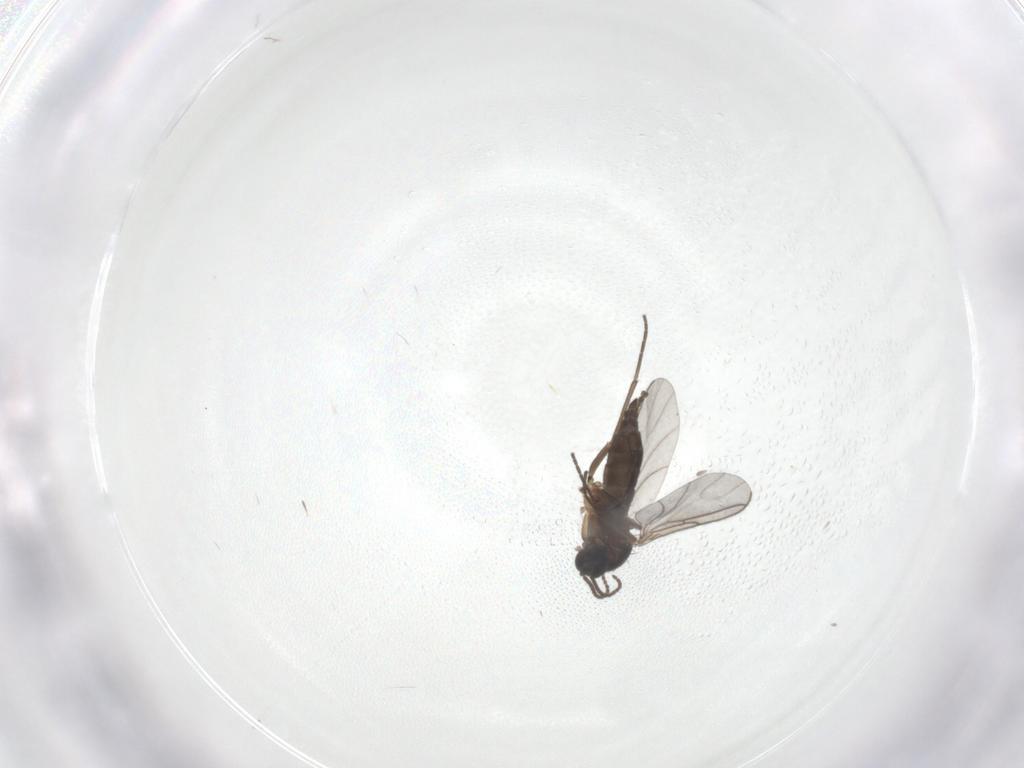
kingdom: Animalia
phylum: Arthropoda
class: Insecta
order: Diptera
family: Sciaridae
